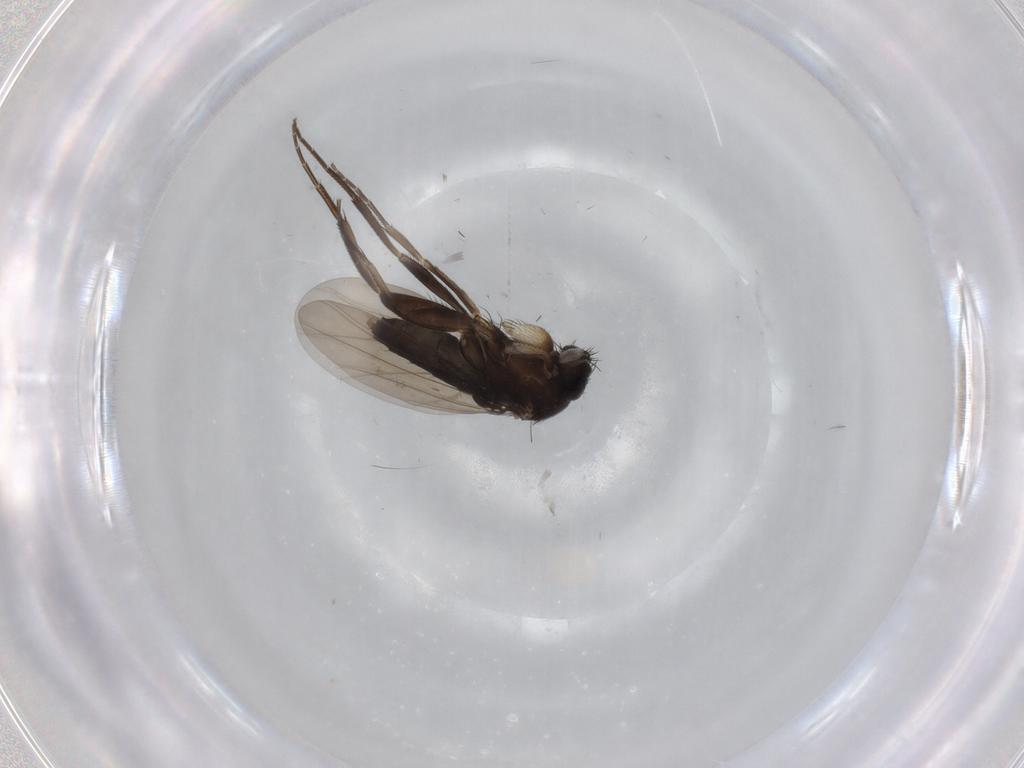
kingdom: Animalia
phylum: Arthropoda
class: Insecta
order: Diptera
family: Phoridae
